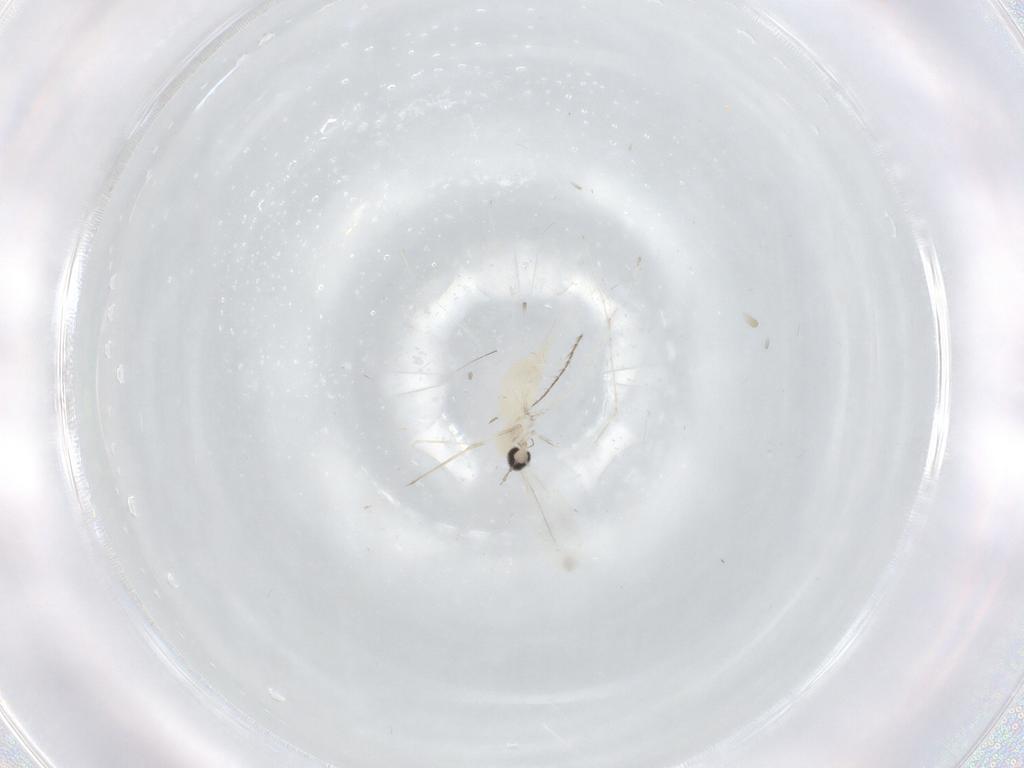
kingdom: Animalia
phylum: Arthropoda
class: Insecta
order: Diptera
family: Cecidomyiidae
